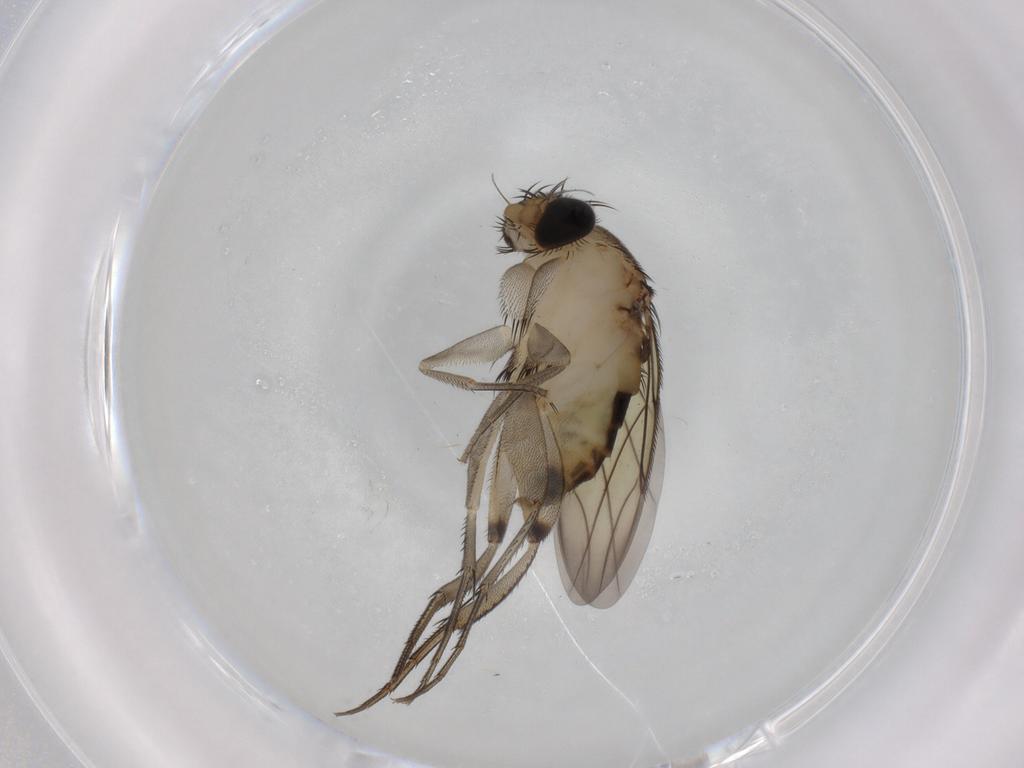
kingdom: Animalia
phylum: Arthropoda
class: Insecta
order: Diptera
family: Phoridae
